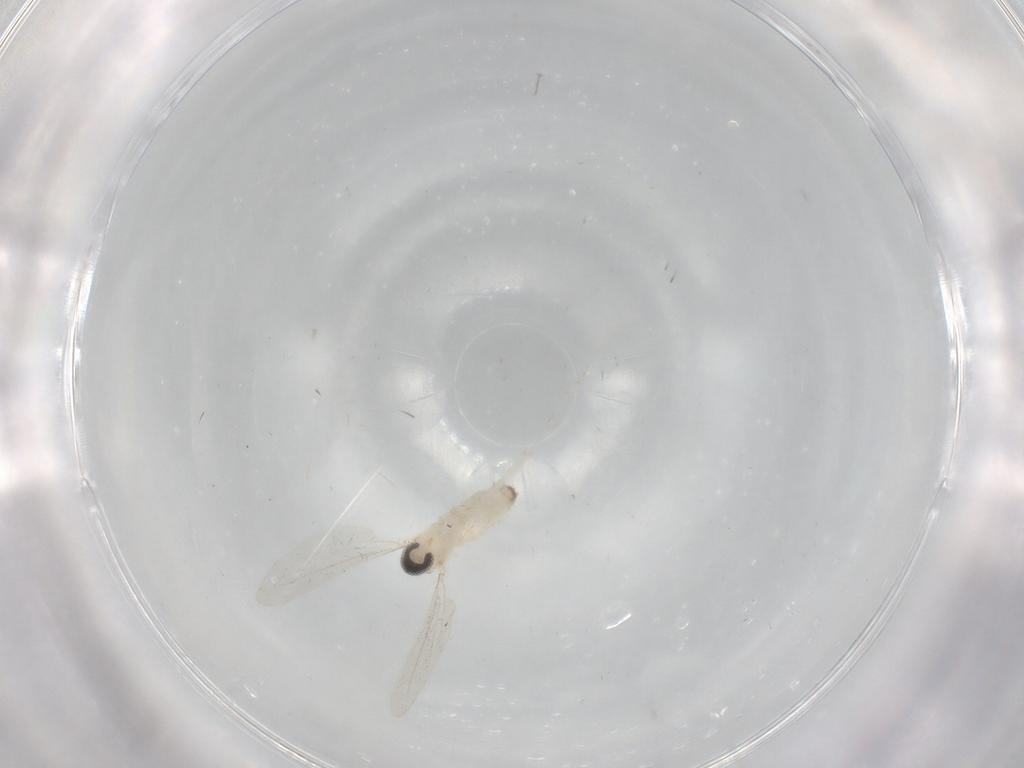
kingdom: Animalia
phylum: Arthropoda
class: Insecta
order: Diptera
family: Cecidomyiidae
